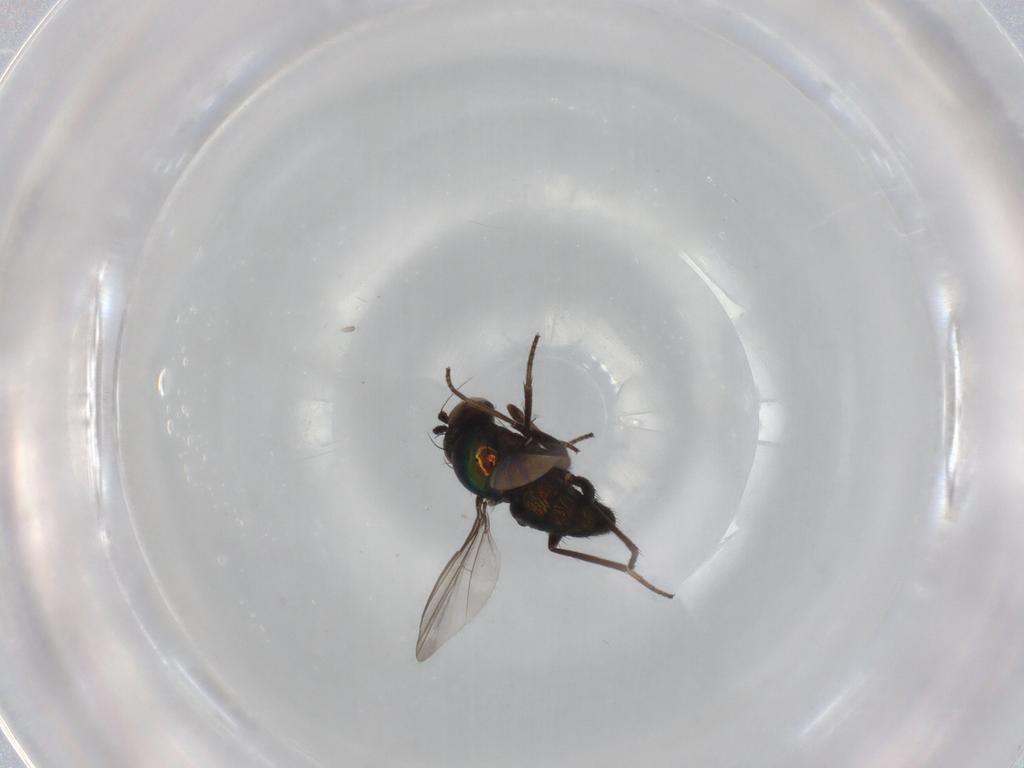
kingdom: Animalia
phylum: Arthropoda
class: Insecta
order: Diptera
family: Dolichopodidae
